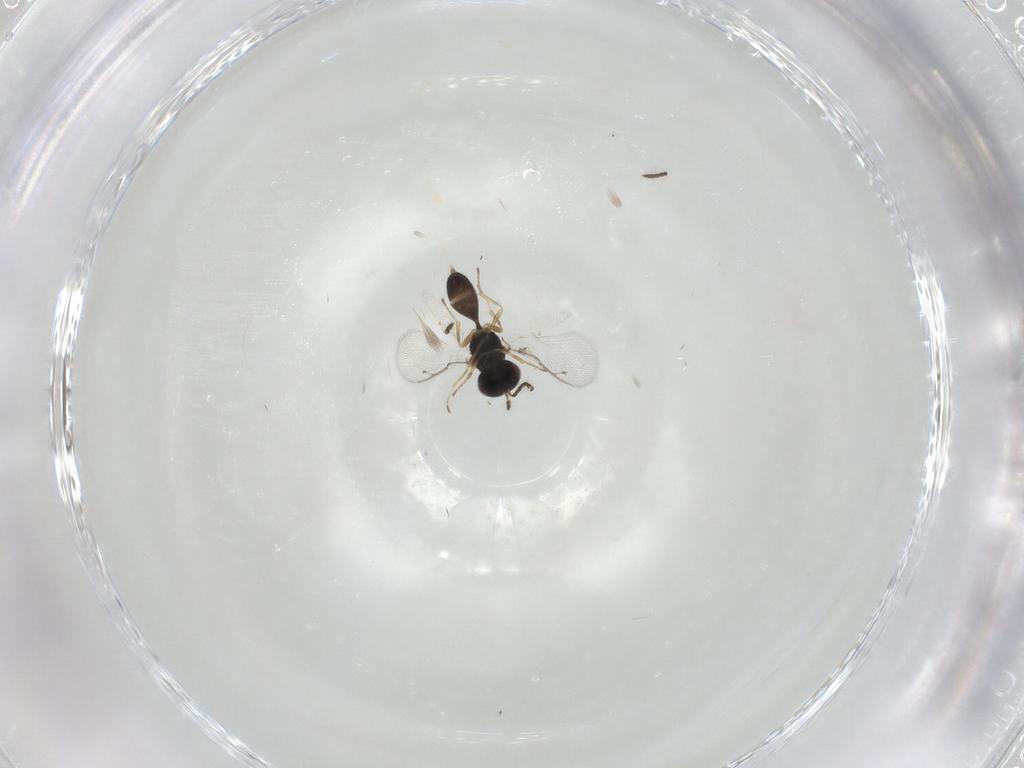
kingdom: Animalia
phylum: Arthropoda
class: Insecta
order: Hymenoptera
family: Pteromalidae
